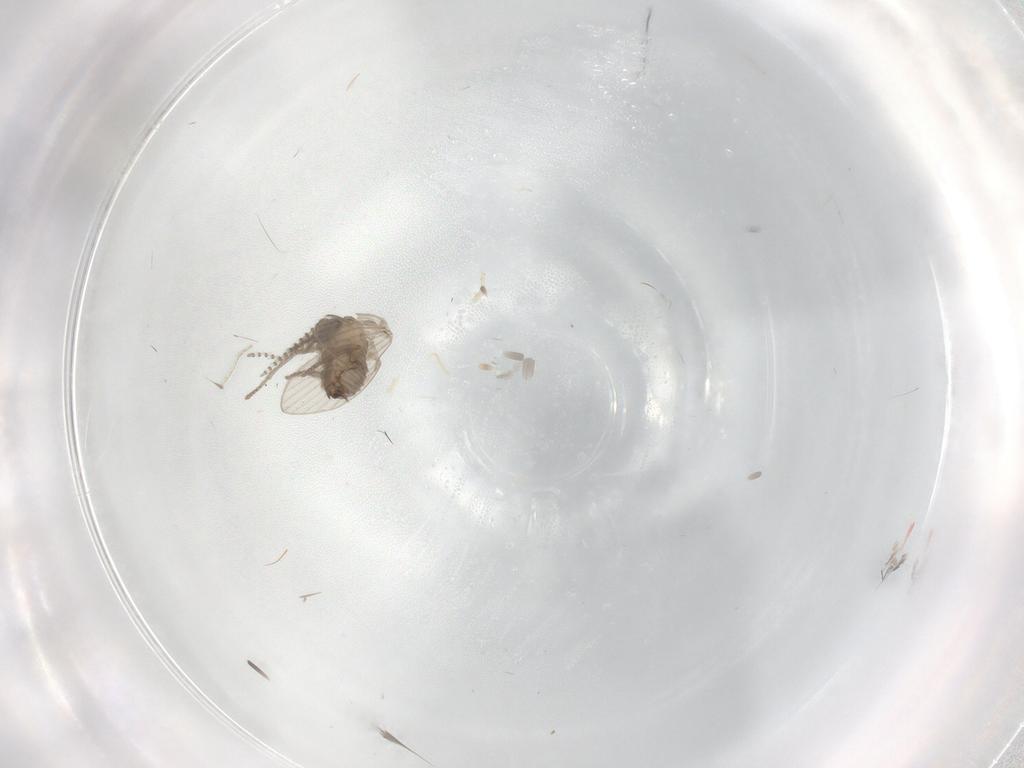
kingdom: Animalia
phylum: Arthropoda
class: Insecta
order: Diptera
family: Psychodidae
